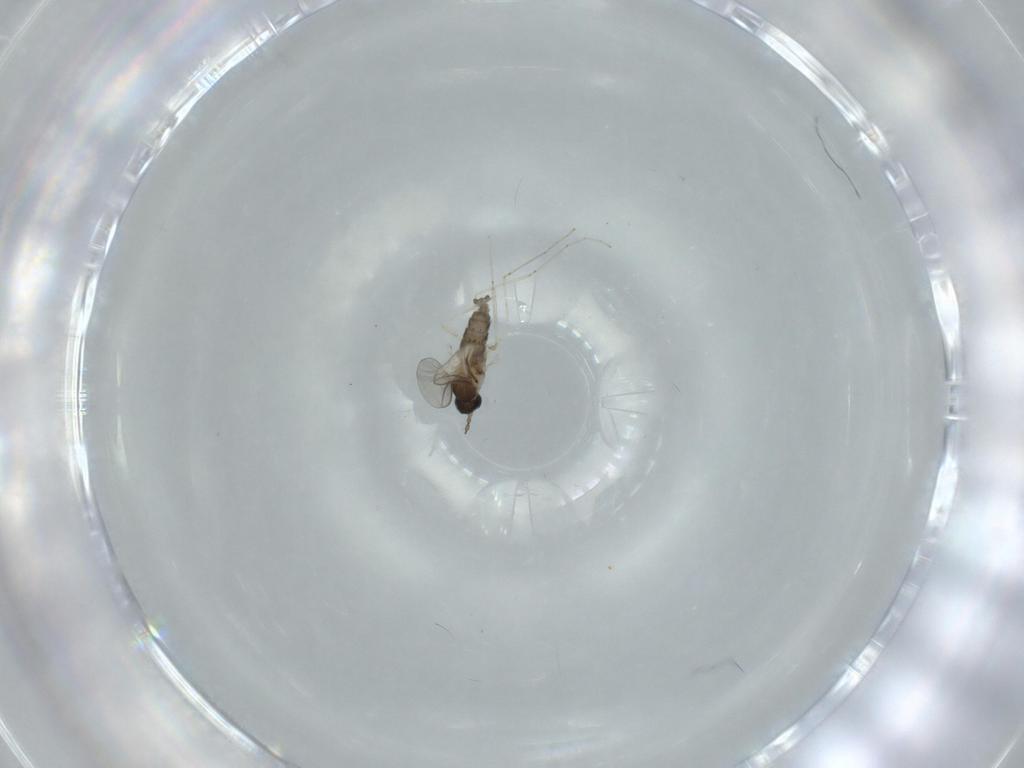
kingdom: Animalia
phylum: Arthropoda
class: Insecta
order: Diptera
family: Cecidomyiidae
